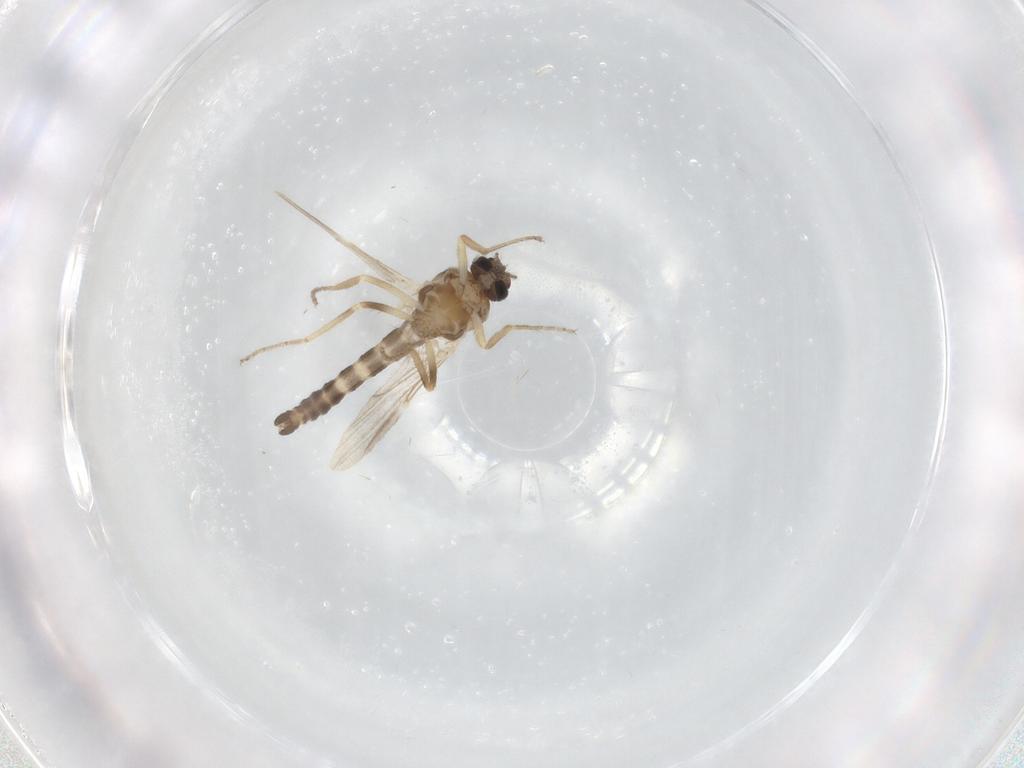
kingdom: Animalia
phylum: Arthropoda
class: Insecta
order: Diptera
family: Ceratopogonidae
